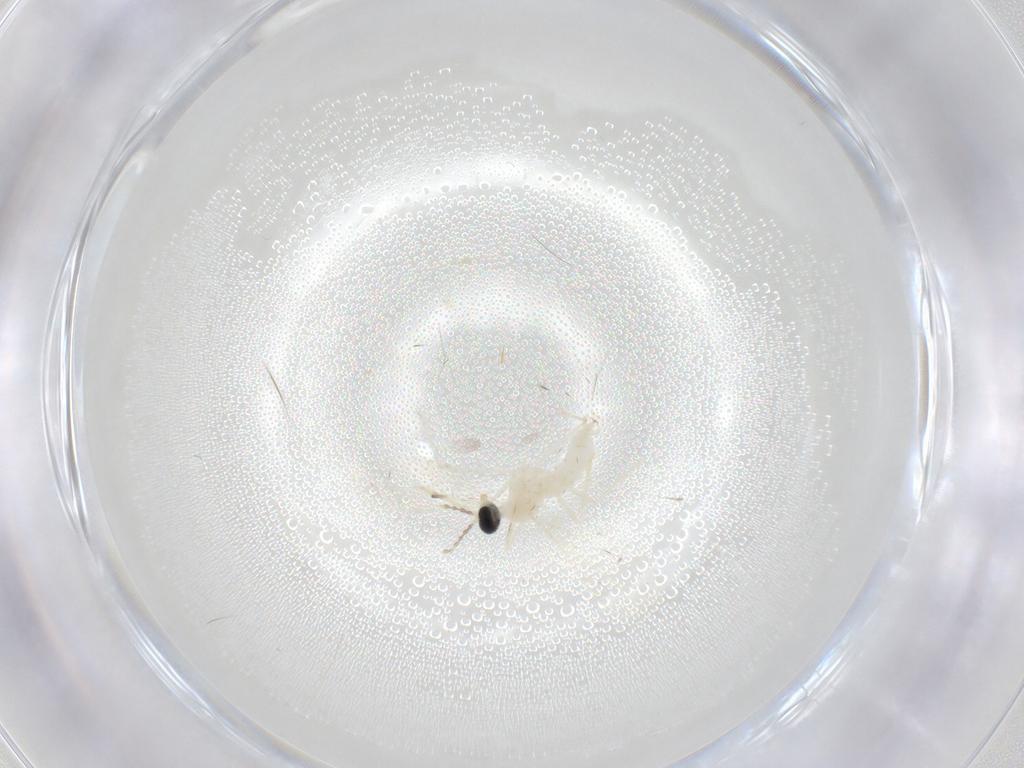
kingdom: Animalia
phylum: Arthropoda
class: Insecta
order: Diptera
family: Cecidomyiidae
